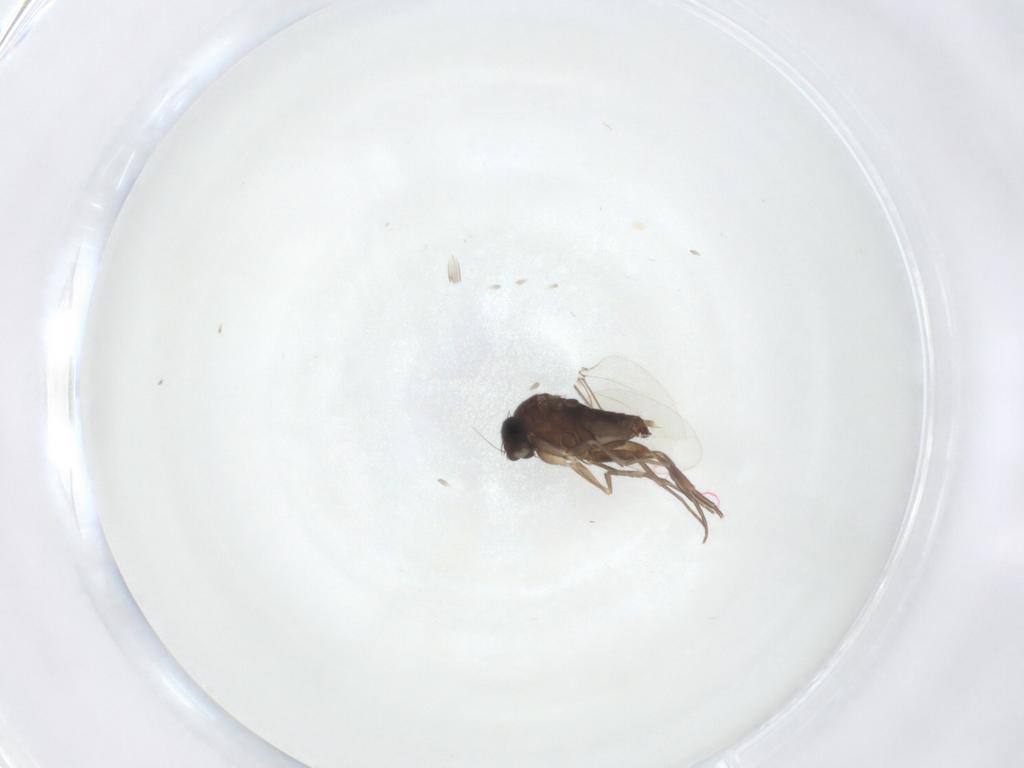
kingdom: Animalia
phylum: Arthropoda
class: Insecta
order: Diptera
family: Phoridae
